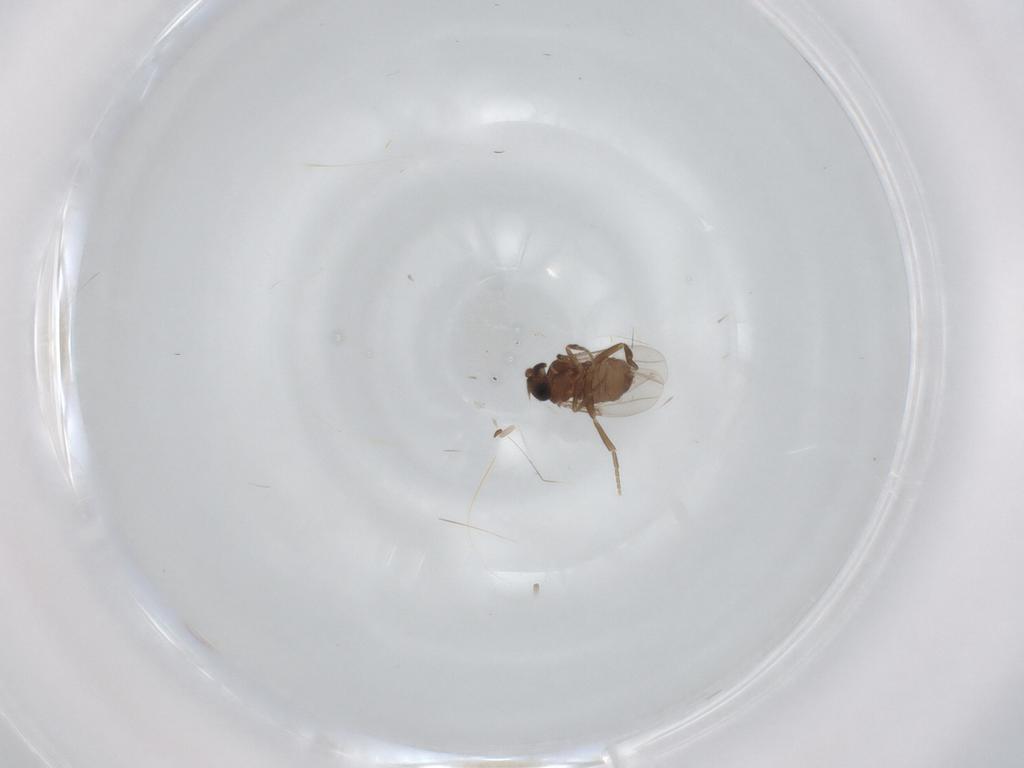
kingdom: Animalia
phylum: Arthropoda
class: Insecta
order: Diptera
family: Phoridae
